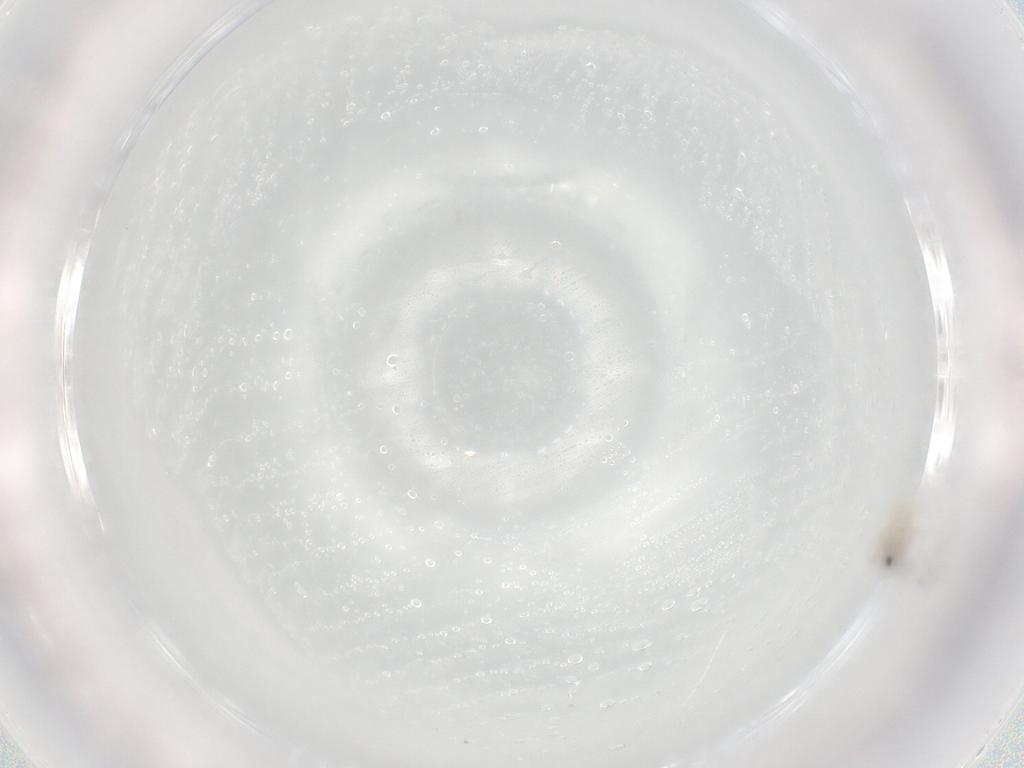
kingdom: Animalia
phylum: Arthropoda
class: Insecta
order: Diptera
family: Cecidomyiidae
